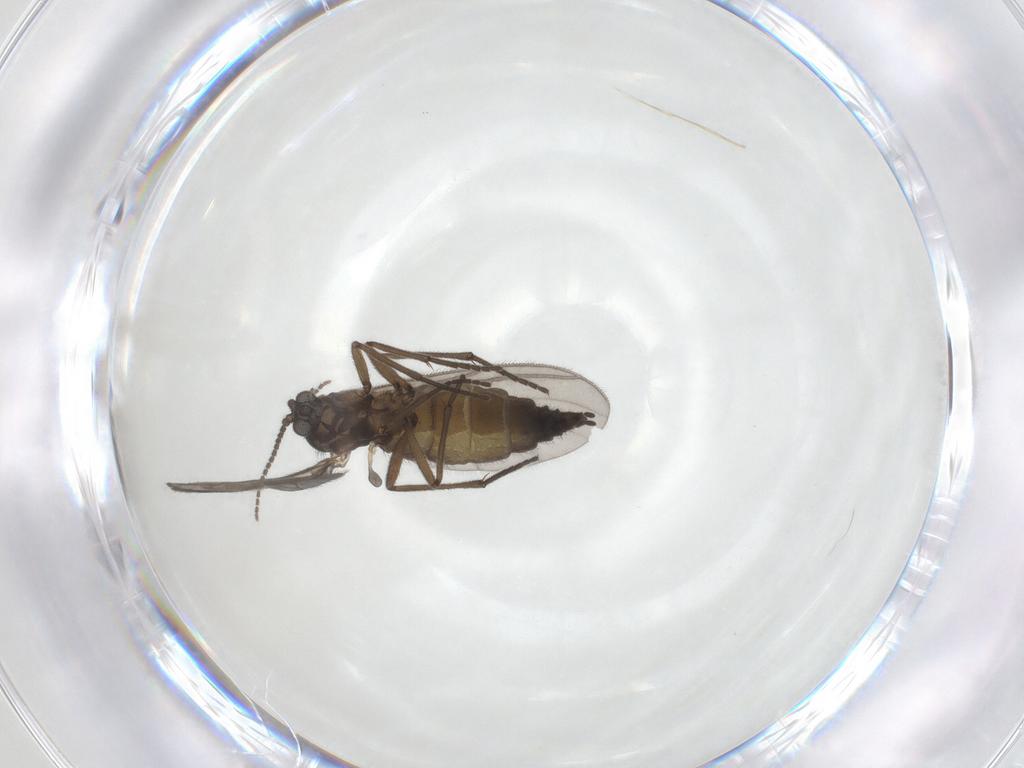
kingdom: Animalia
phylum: Arthropoda
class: Insecta
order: Diptera
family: Sciaridae
